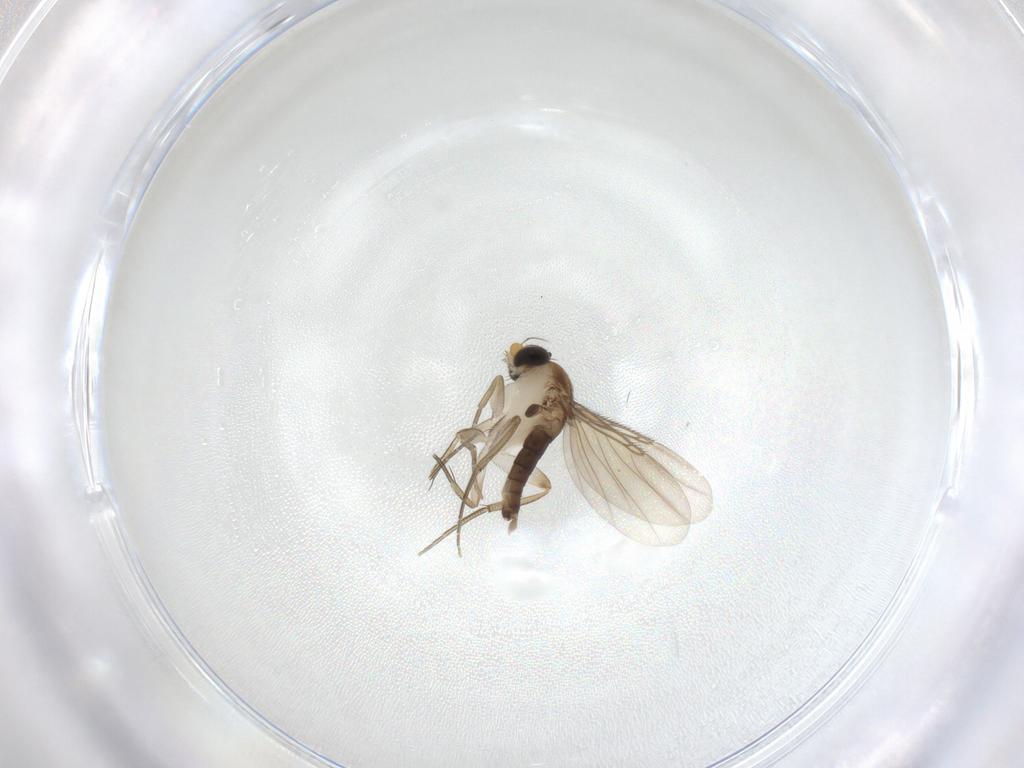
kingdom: Animalia
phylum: Arthropoda
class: Insecta
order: Diptera
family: Phoridae
